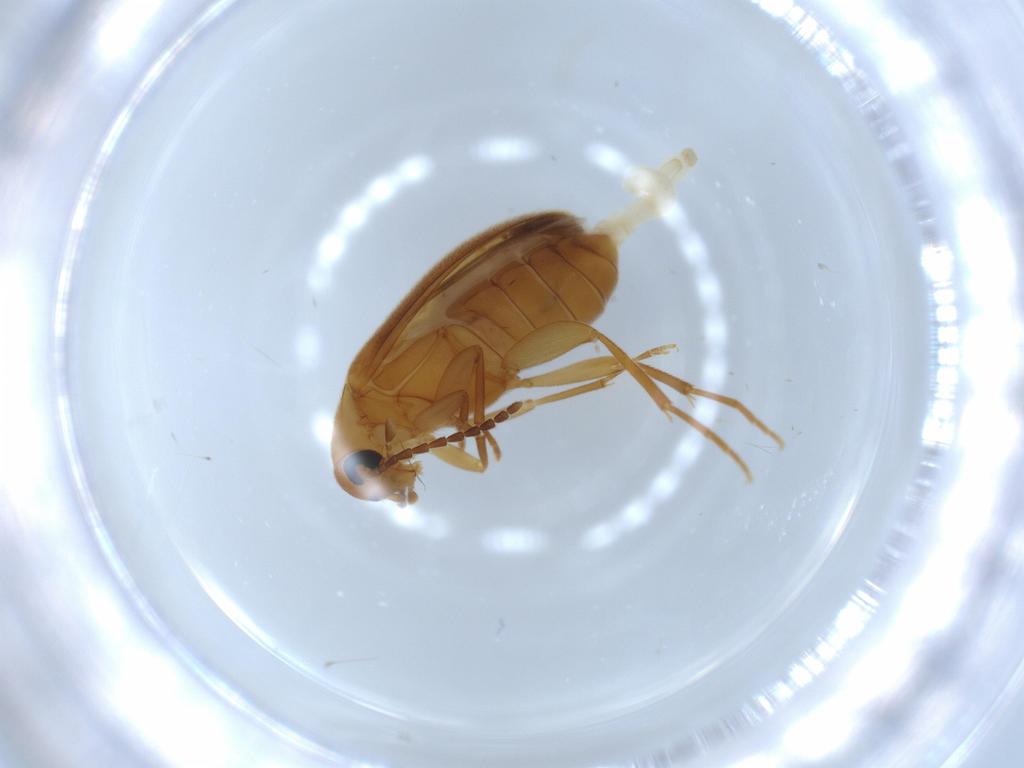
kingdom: Animalia
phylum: Arthropoda
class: Insecta
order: Coleoptera
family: Scraptiidae
